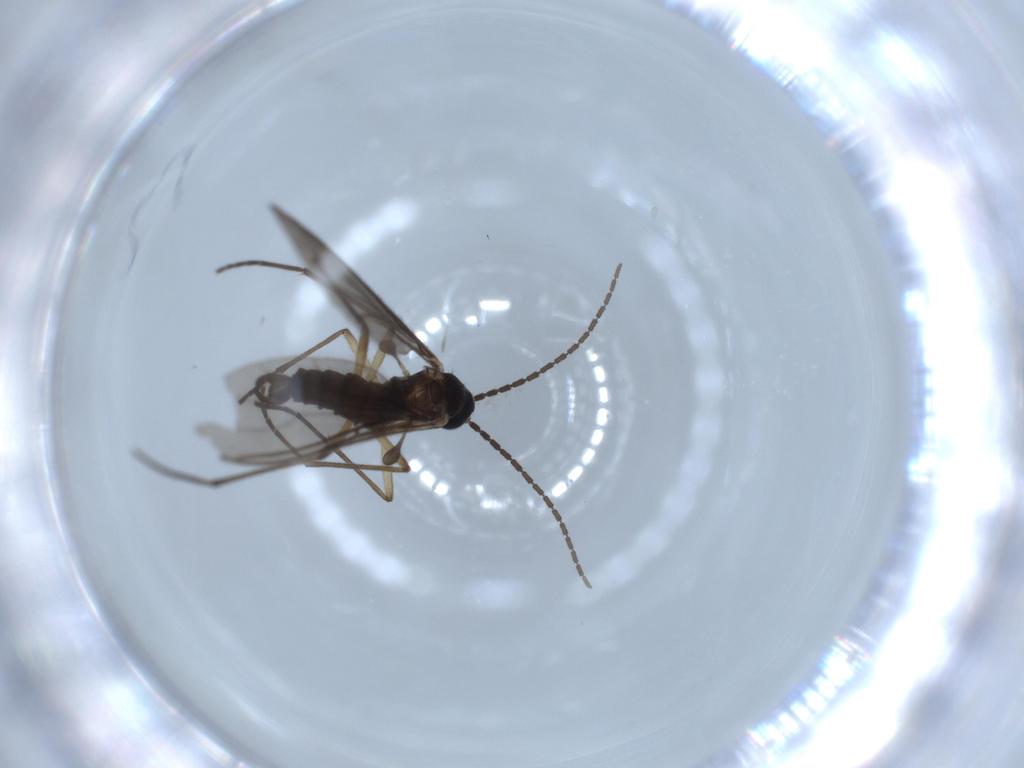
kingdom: Animalia
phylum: Arthropoda
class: Insecta
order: Diptera
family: Sciaridae
